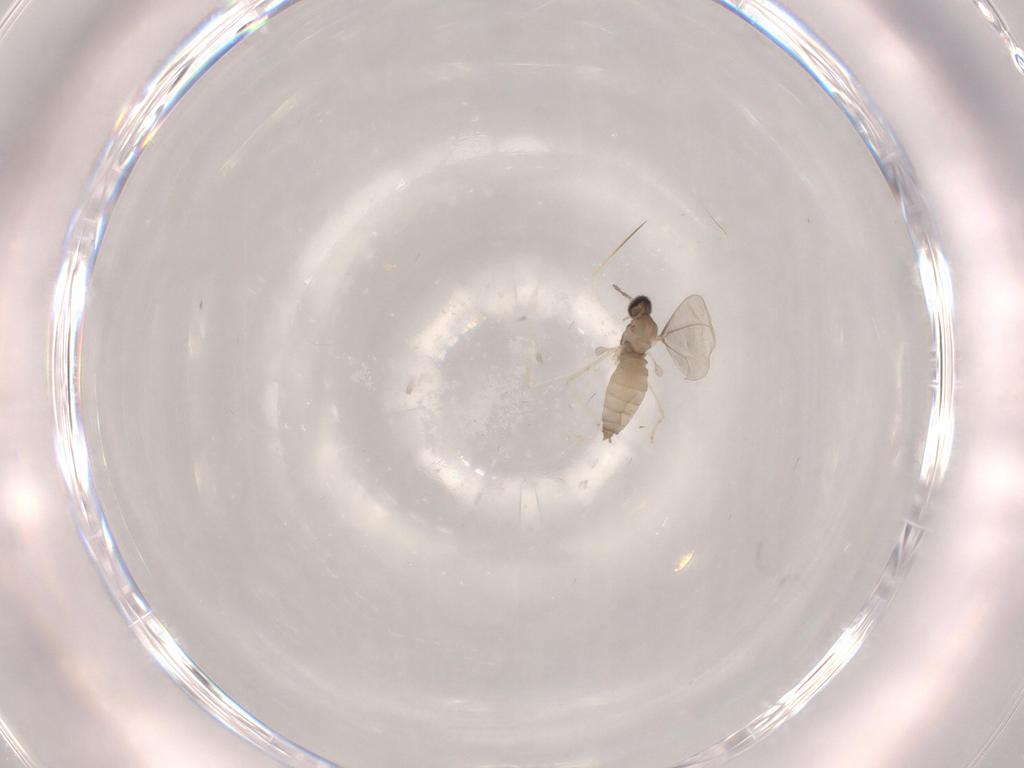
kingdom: Animalia
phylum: Arthropoda
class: Insecta
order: Diptera
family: Cecidomyiidae
